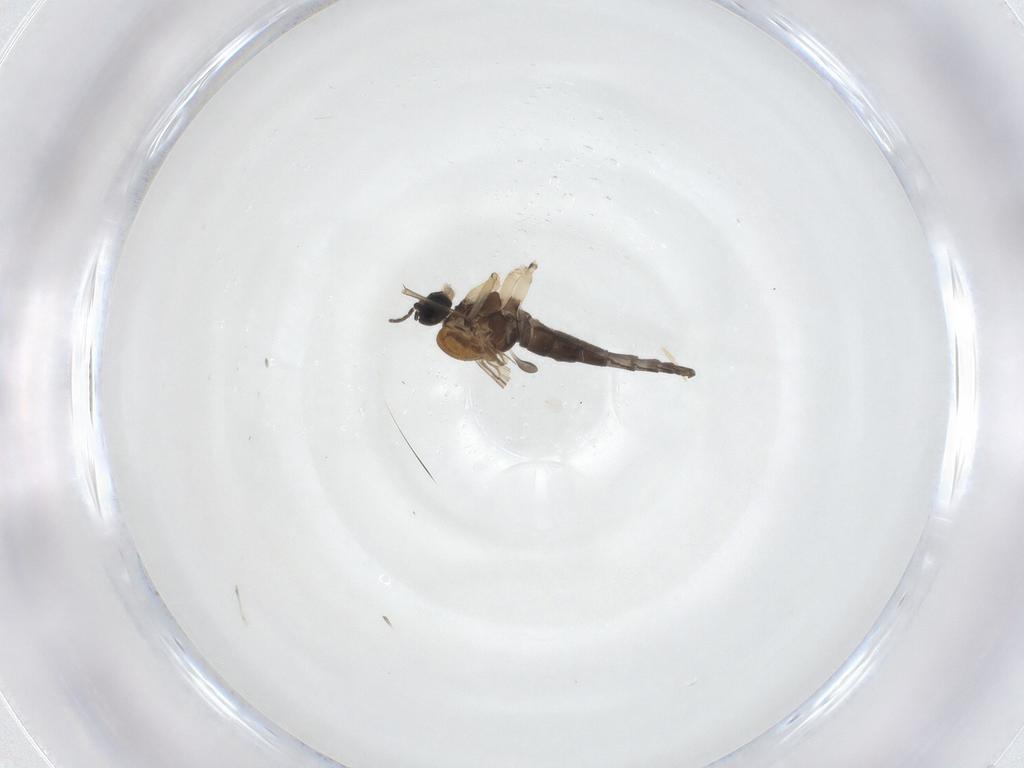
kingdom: Animalia
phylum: Arthropoda
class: Insecta
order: Diptera
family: Sciaridae
